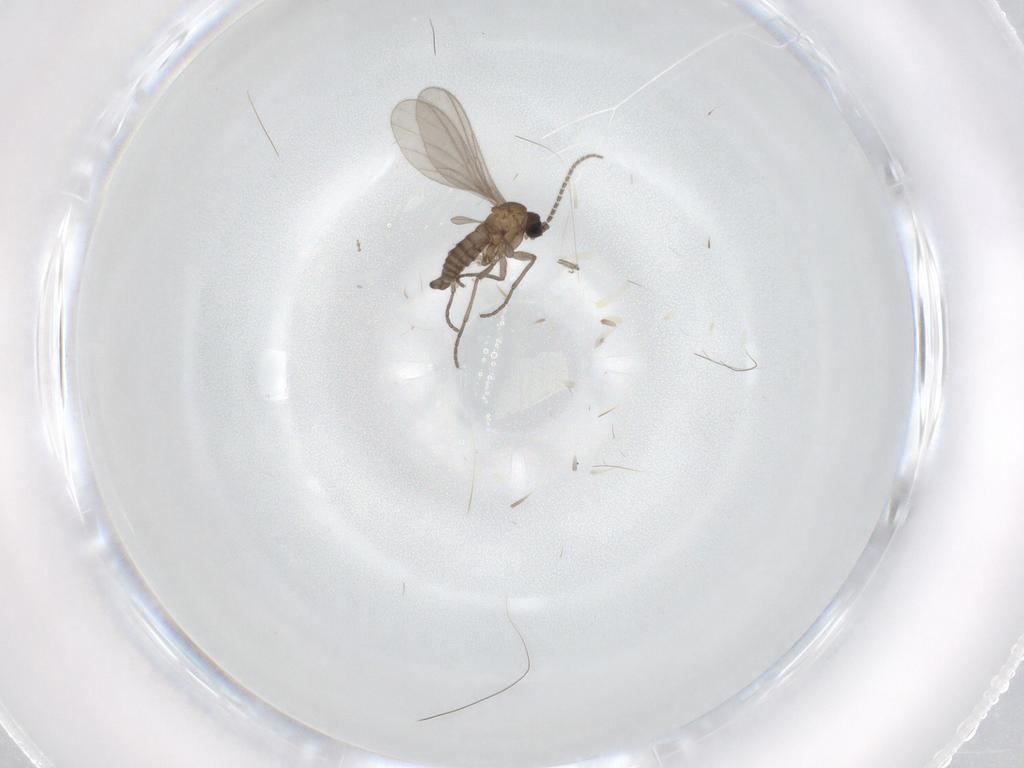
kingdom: Animalia
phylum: Arthropoda
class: Insecta
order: Diptera
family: Sciaridae
